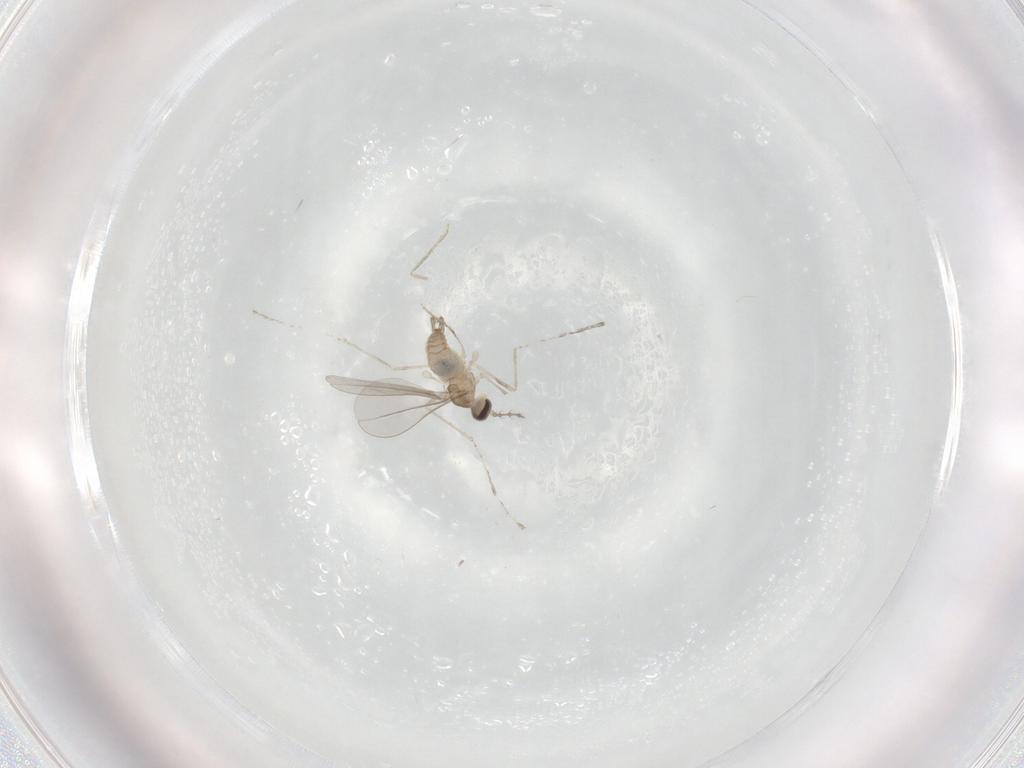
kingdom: Animalia
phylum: Arthropoda
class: Insecta
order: Diptera
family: Cecidomyiidae
